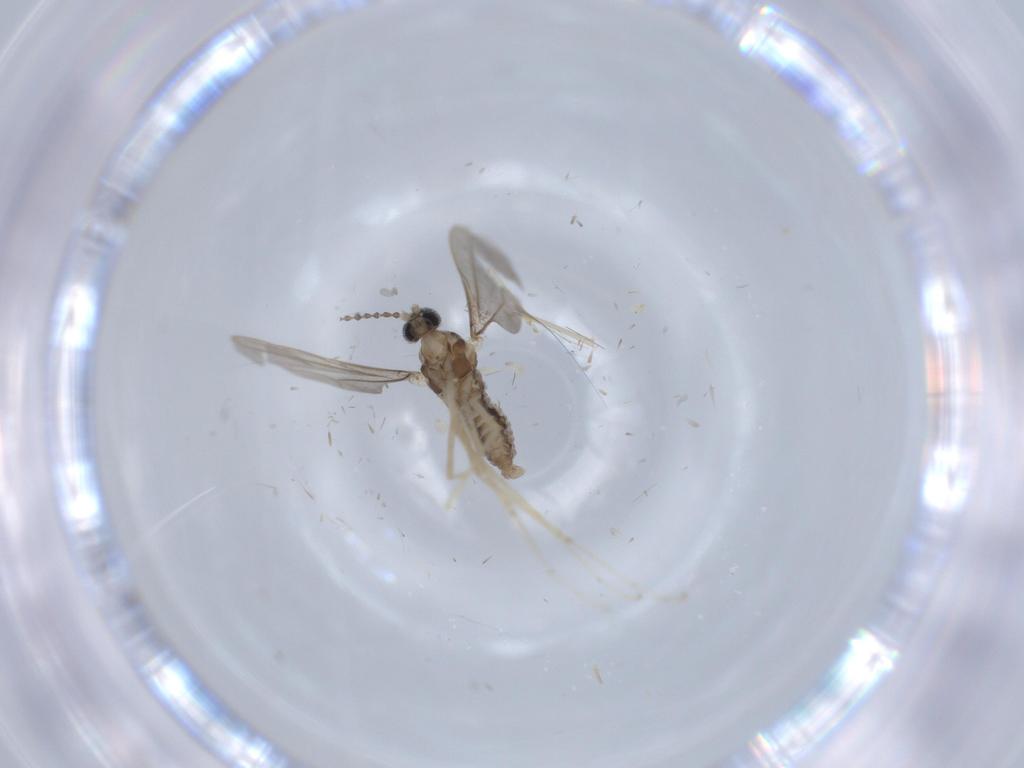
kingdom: Animalia
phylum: Arthropoda
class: Insecta
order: Diptera
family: Cecidomyiidae
